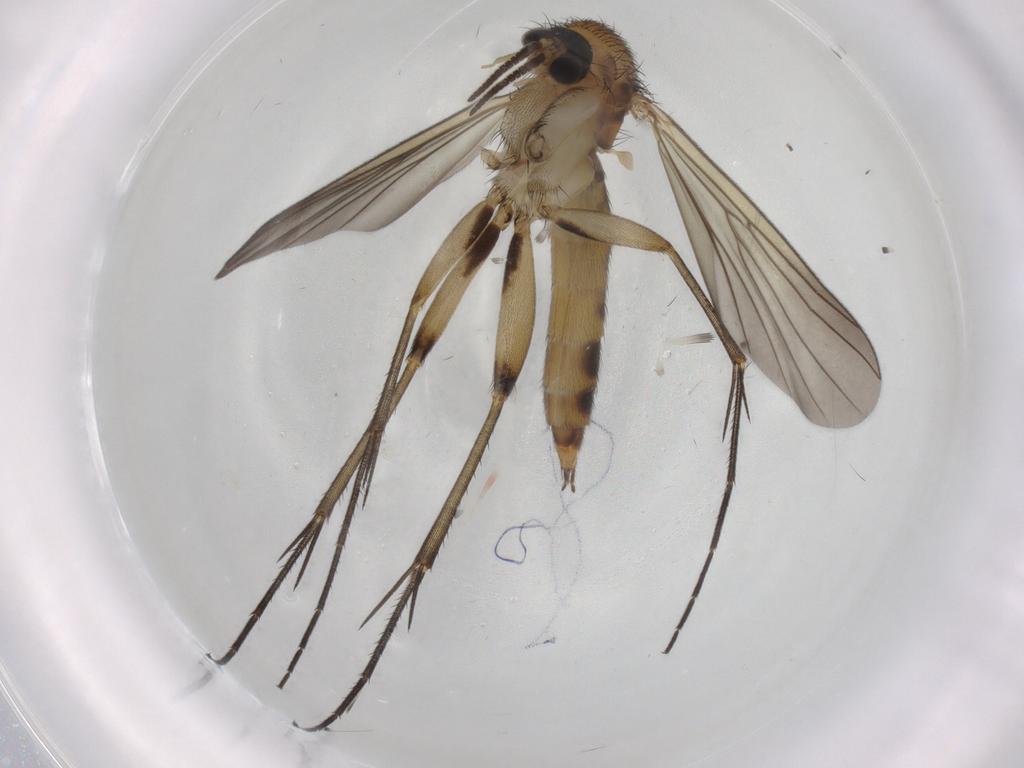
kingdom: Animalia
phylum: Arthropoda
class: Insecta
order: Diptera
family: Mycetophilidae
